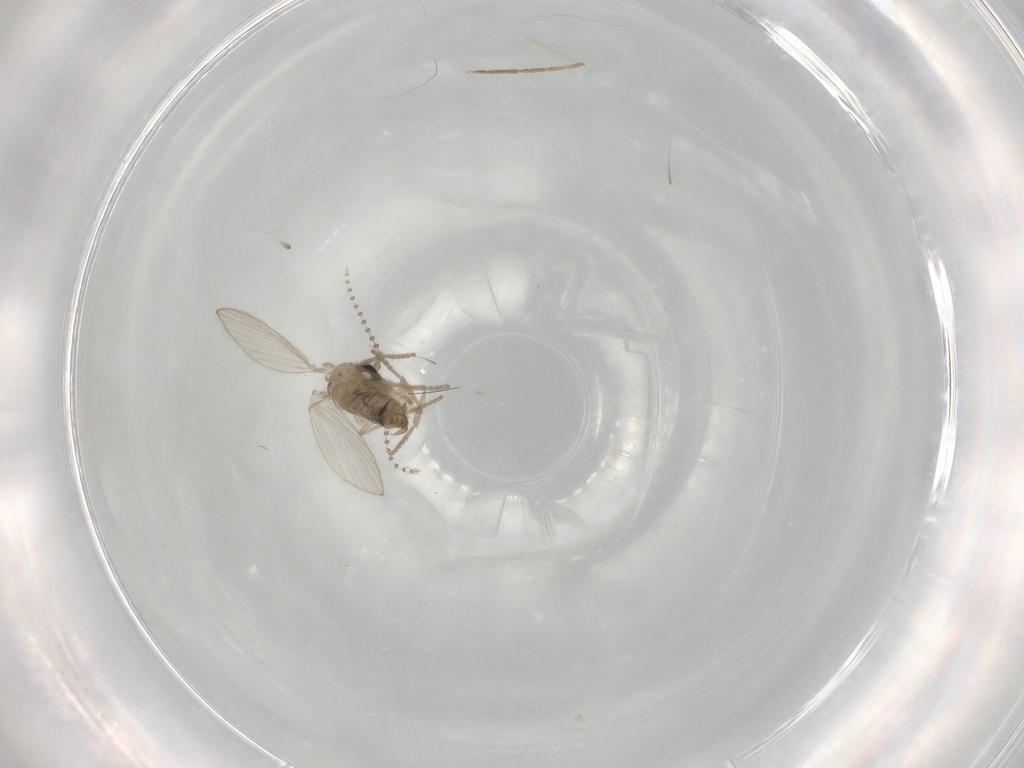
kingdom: Animalia
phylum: Arthropoda
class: Insecta
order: Diptera
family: Psychodidae
